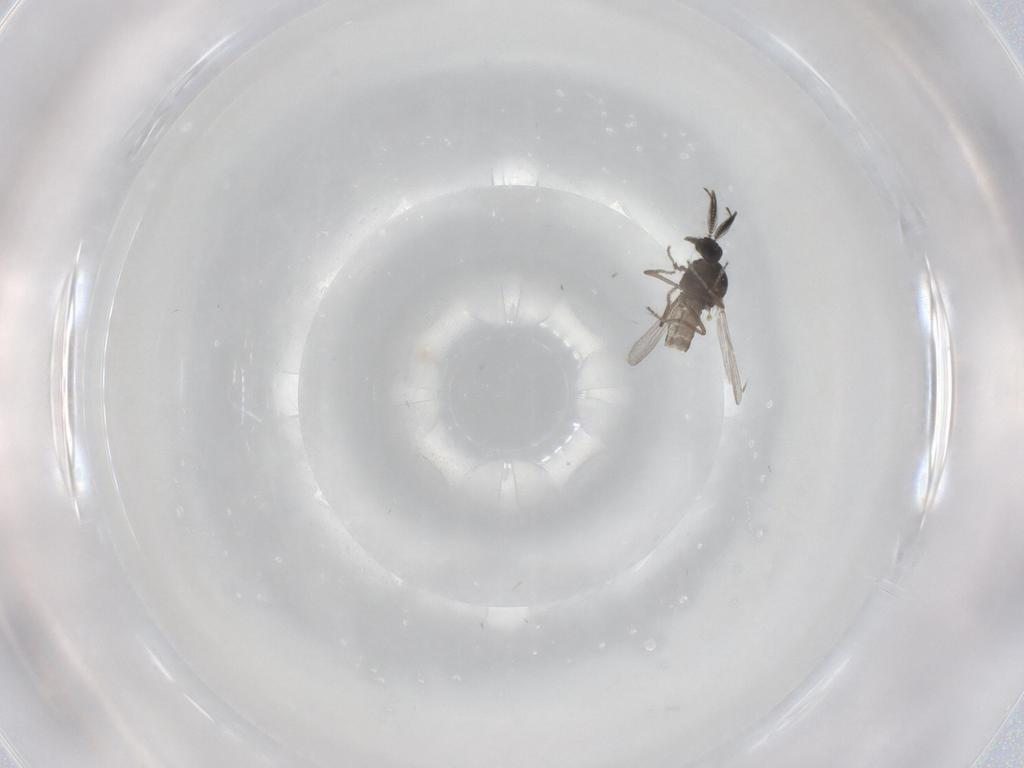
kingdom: Animalia
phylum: Arthropoda
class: Insecta
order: Diptera
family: Ceratopogonidae
